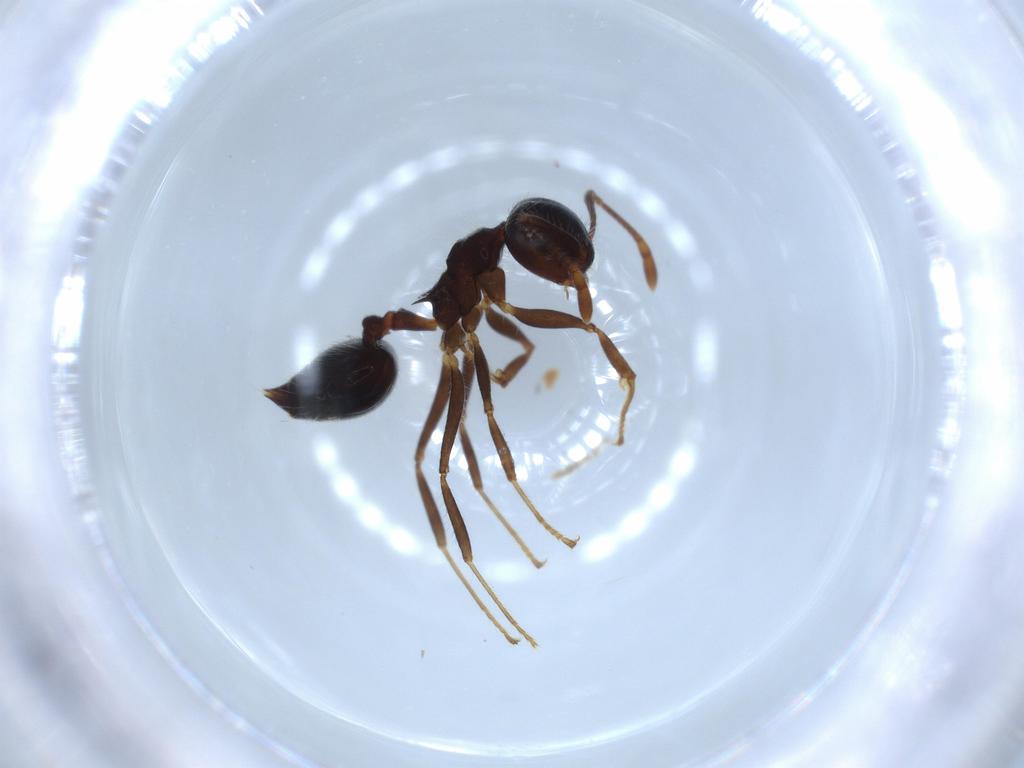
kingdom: Animalia
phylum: Arthropoda
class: Insecta
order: Hymenoptera
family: Formicidae
